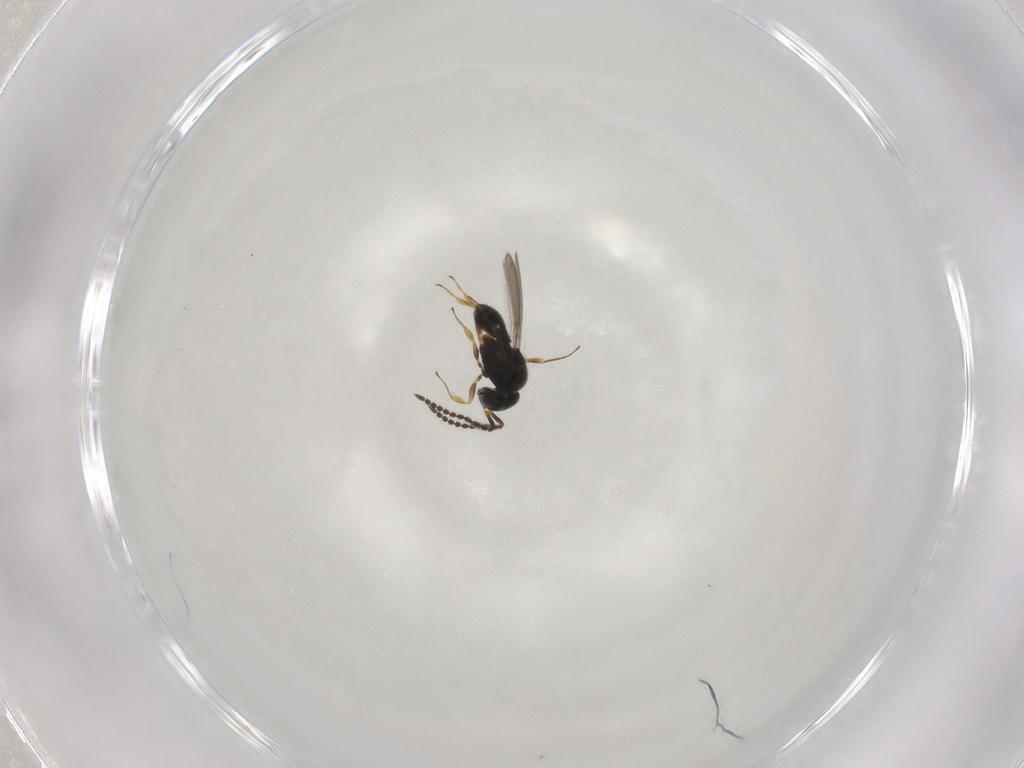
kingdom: Animalia
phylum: Arthropoda
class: Insecta
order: Hymenoptera
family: Scelionidae
